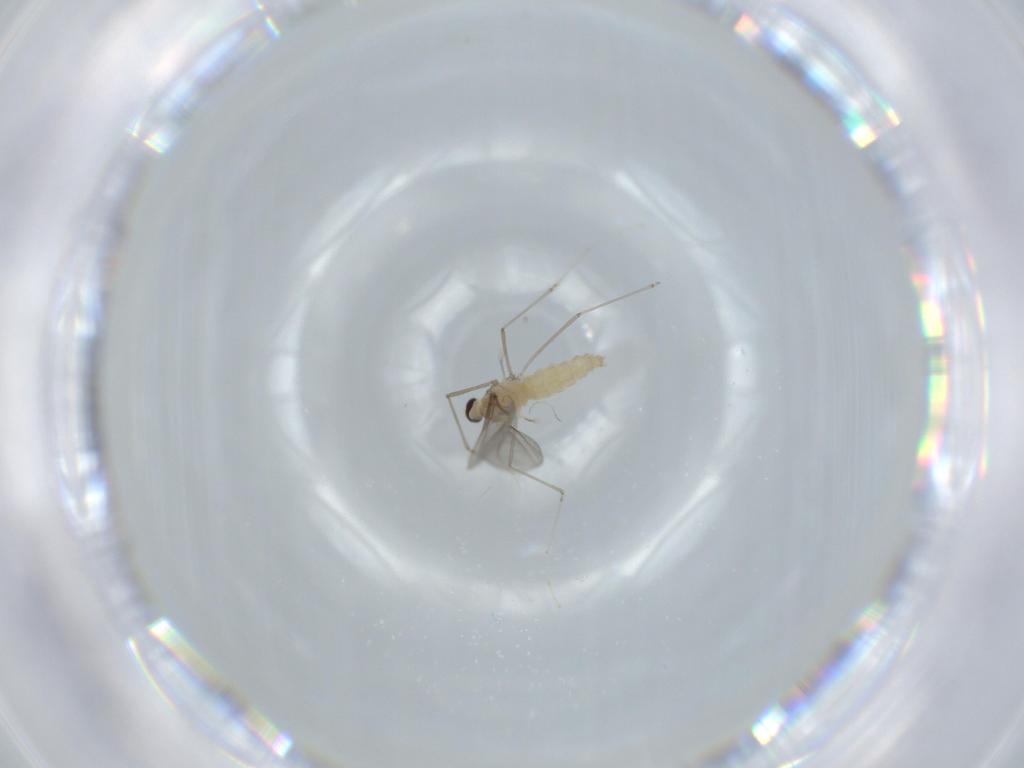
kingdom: Animalia
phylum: Arthropoda
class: Insecta
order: Diptera
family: Cecidomyiidae
